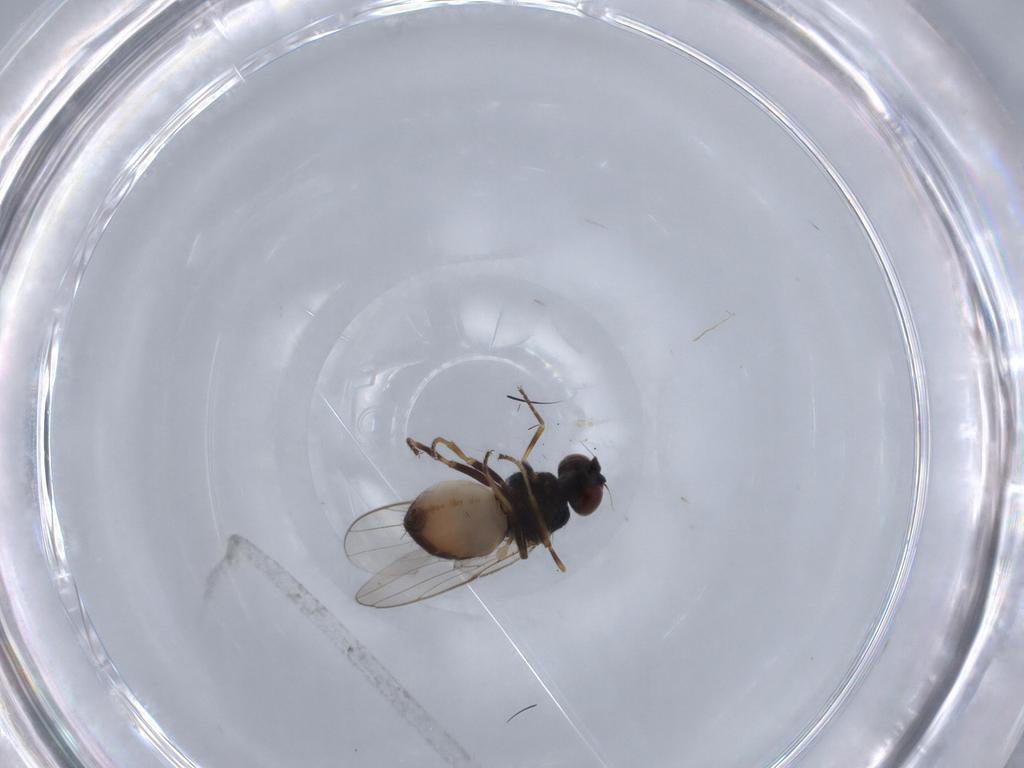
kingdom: Animalia
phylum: Arthropoda
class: Insecta
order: Diptera
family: Chloropidae
